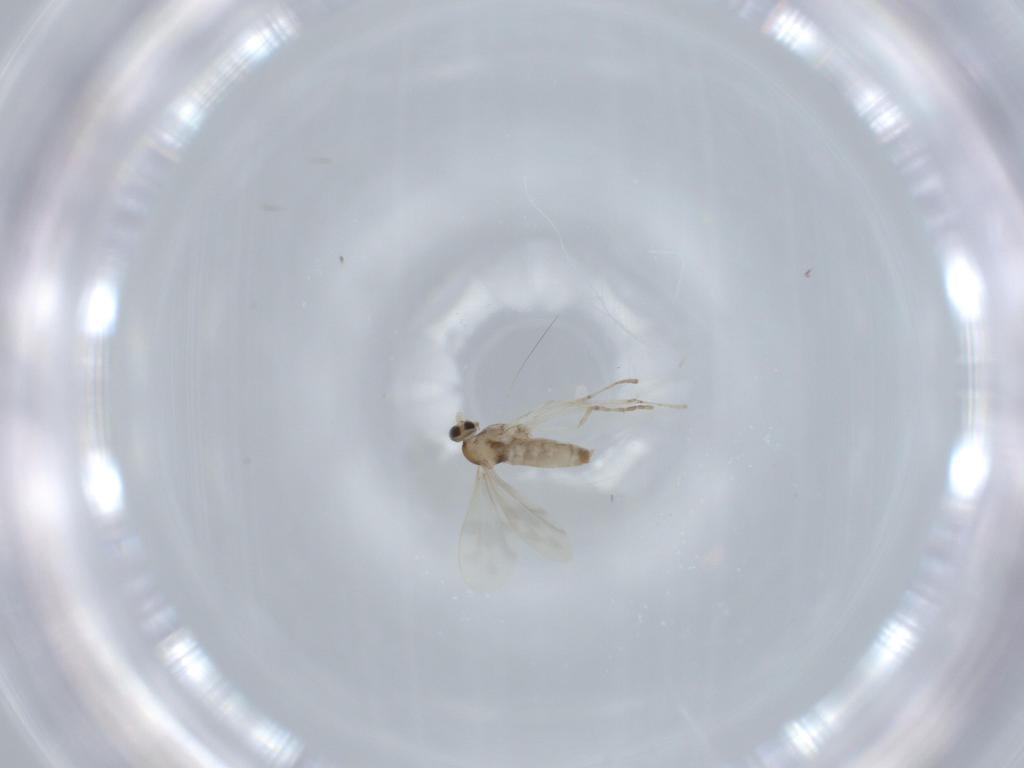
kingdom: Animalia
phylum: Arthropoda
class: Insecta
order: Diptera
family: Cecidomyiidae
